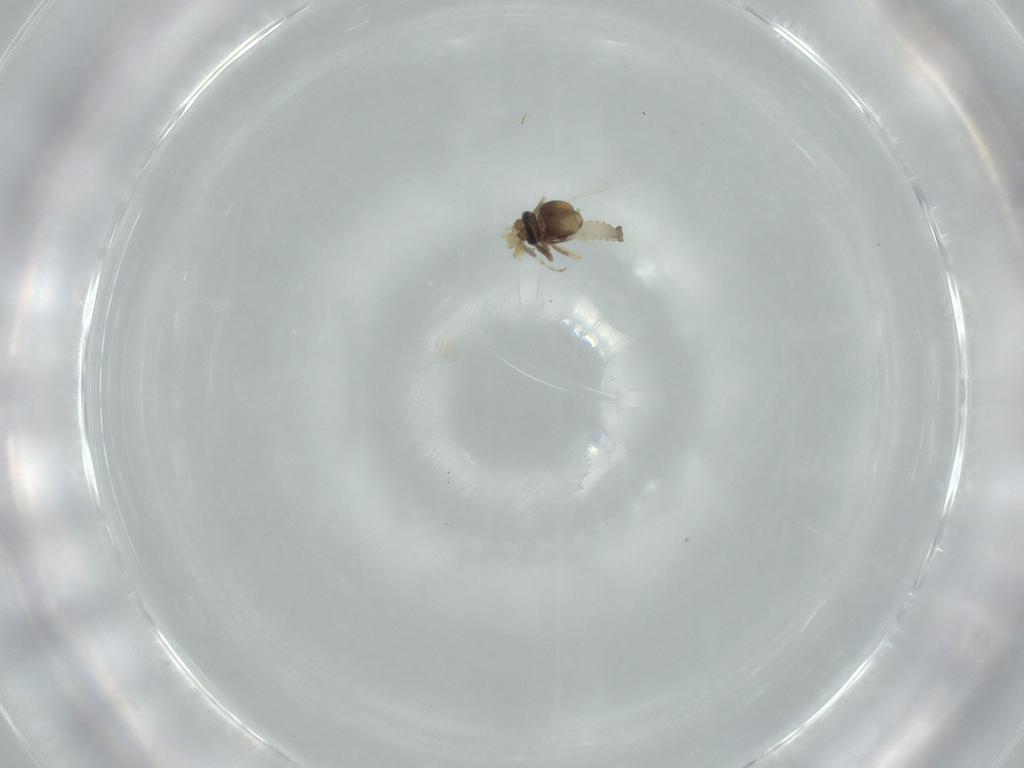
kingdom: Animalia
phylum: Arthropoda
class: Insecta
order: Diptera
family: Ceratopogonidae
